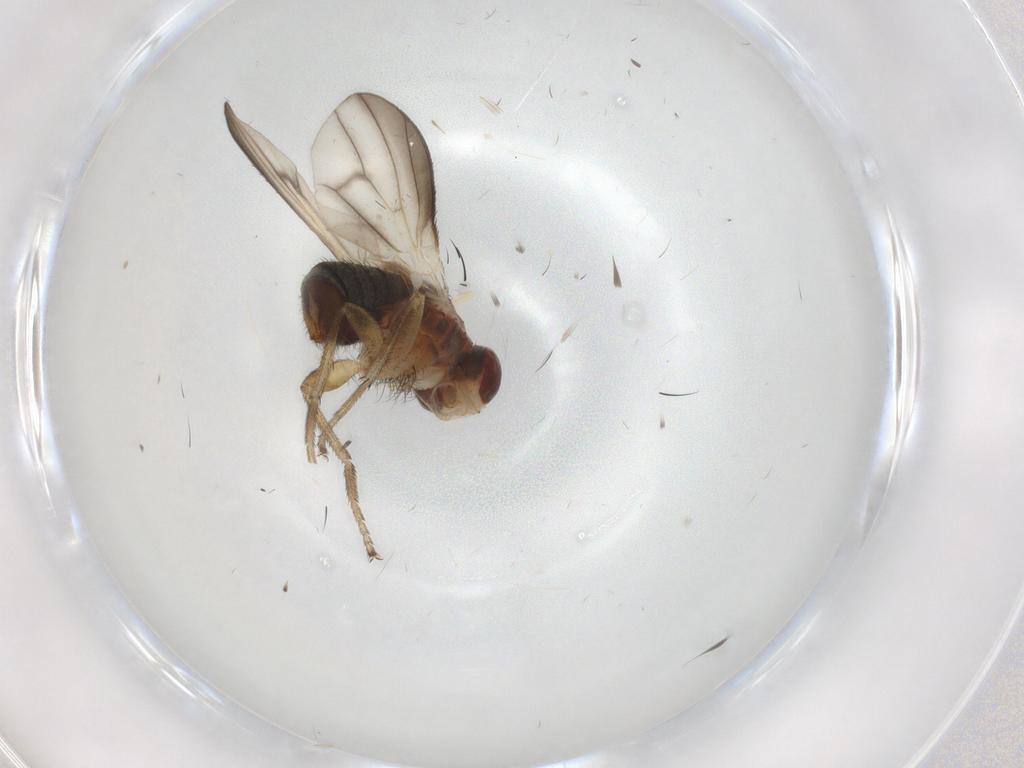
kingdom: Animalia
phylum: Arthropoda
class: Insecta
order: Diptera
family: Heleomyzidae
